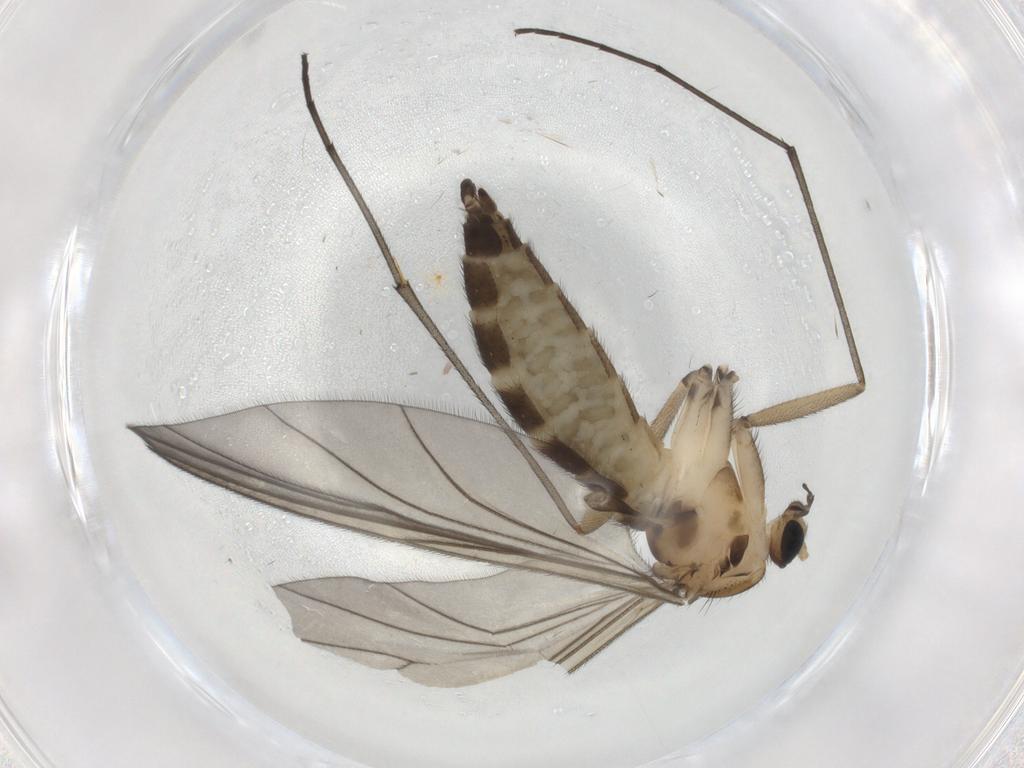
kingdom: Animalia
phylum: Arthropoda
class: Insecta
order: Diptera
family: Sciaridae
